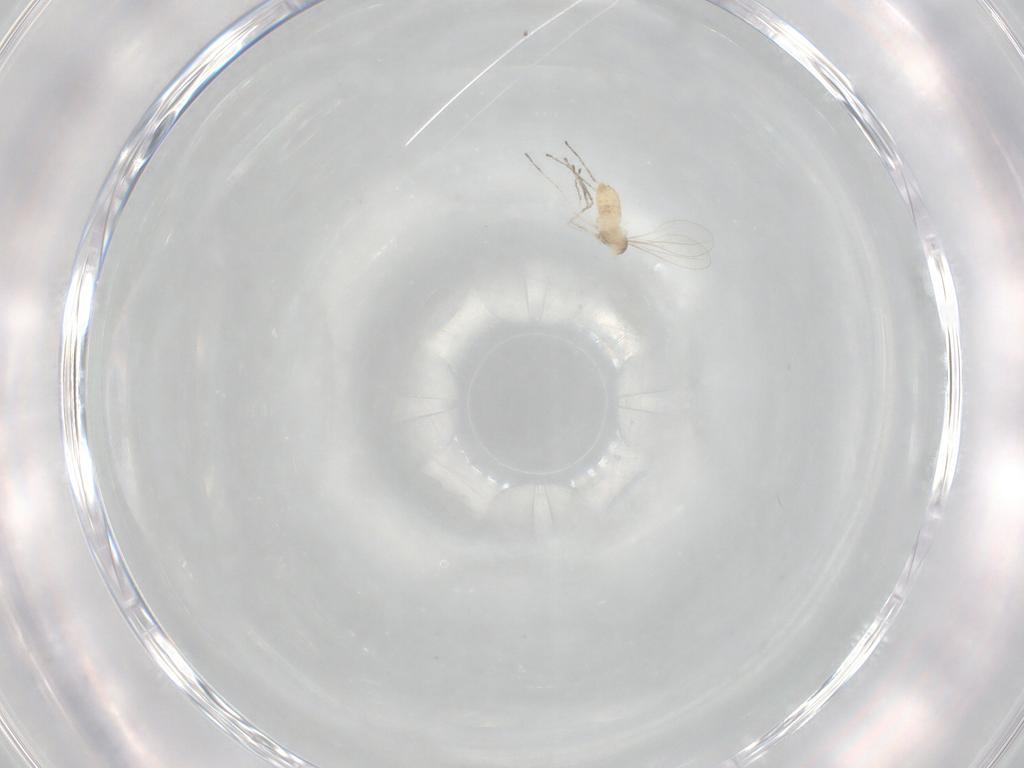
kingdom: Animalia
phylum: Arthropoda
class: Insecta
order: Diptera
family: Cecidomyiidae
